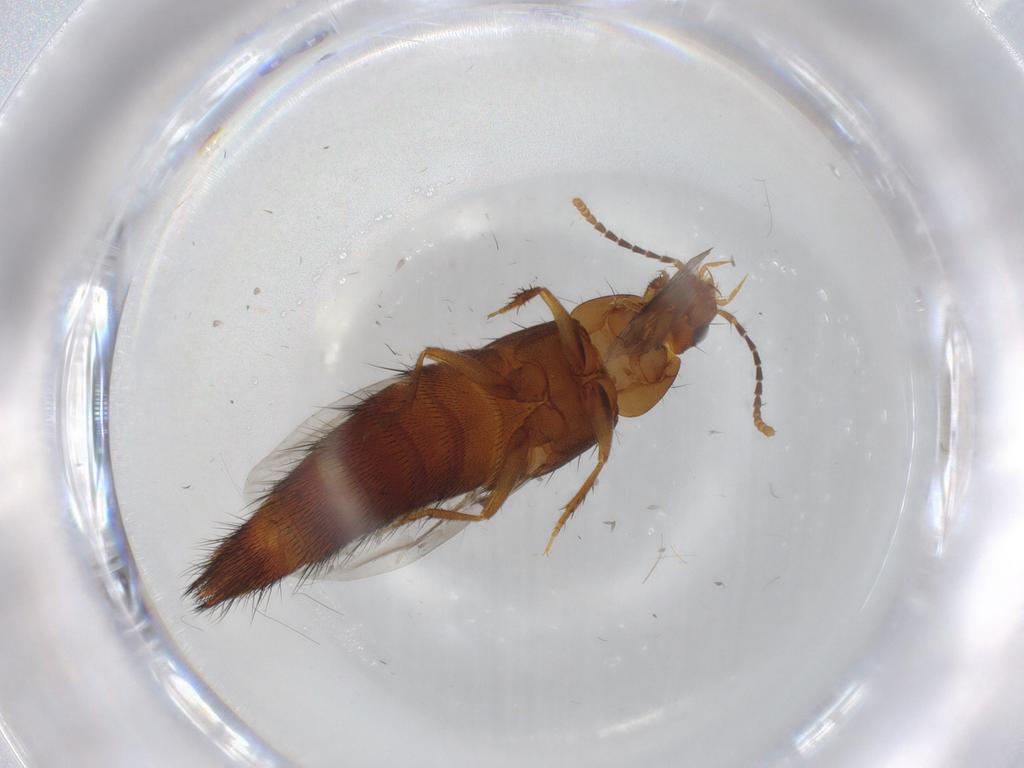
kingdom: Animalia
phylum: Arthropoda
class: Insecta
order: Coleoptera
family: Staphylinidae
